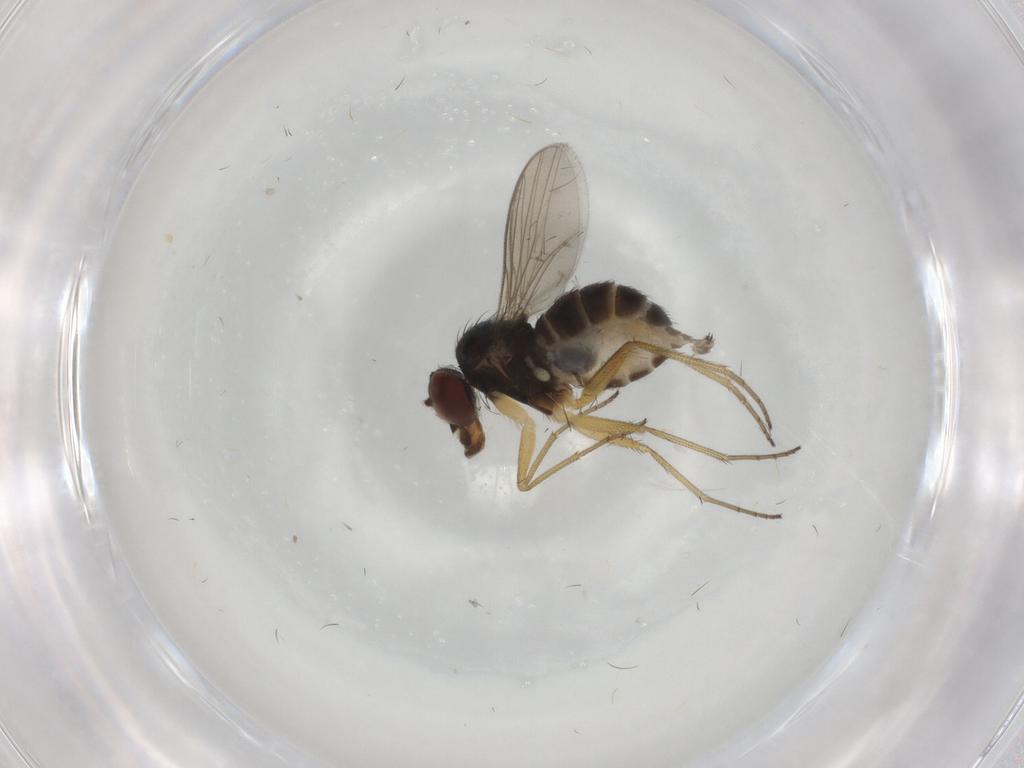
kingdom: Animalia
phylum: Arthropoda
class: Insecta
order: Diptera
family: Dolichopodidae
